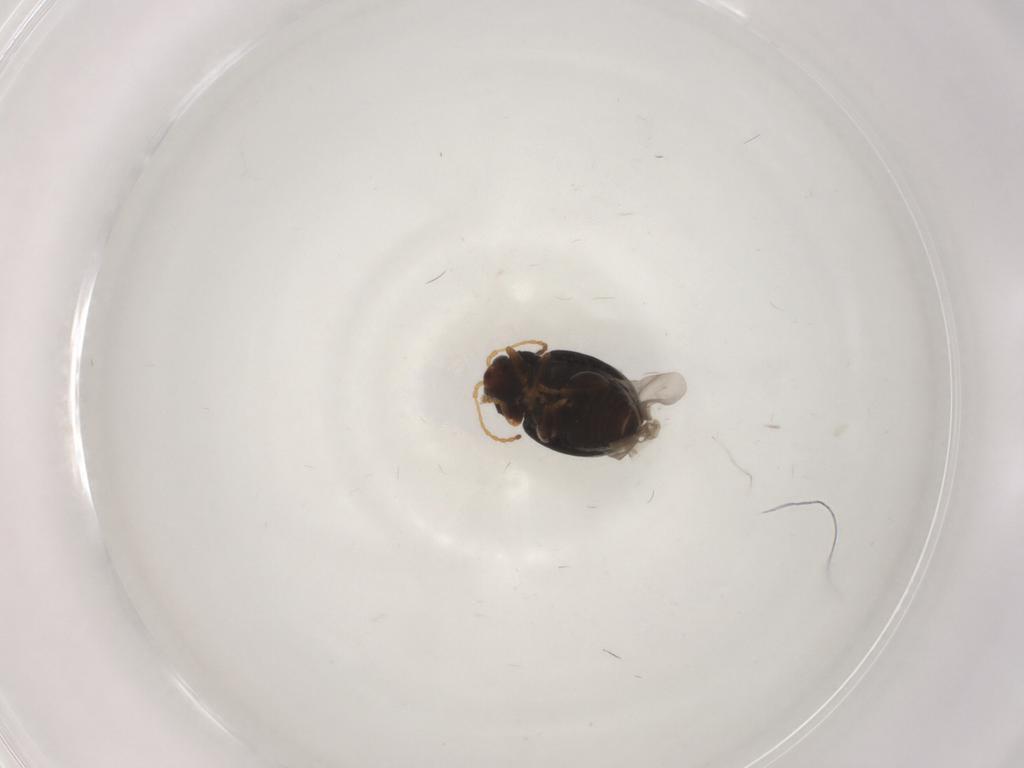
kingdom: Animalia
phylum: Arthropoda
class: Insecta
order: Coleoptera
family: Chrysomelidae
